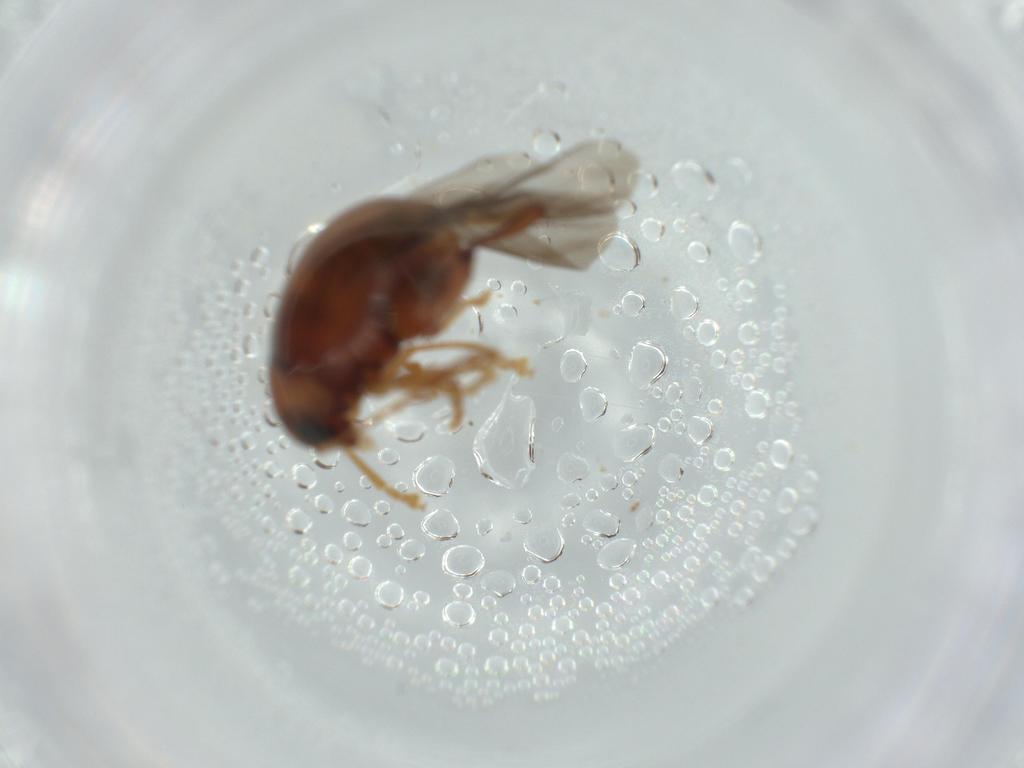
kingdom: Animalia
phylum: Arthropoda
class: Insecta
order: Coleoptera
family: Chrysomelidae
